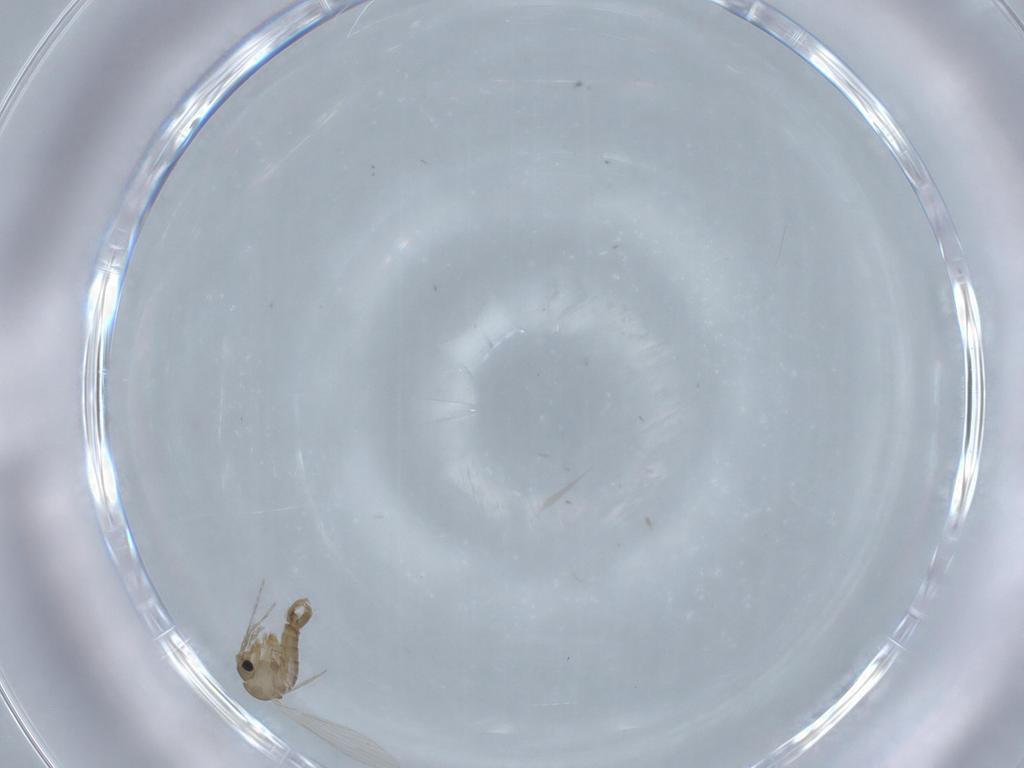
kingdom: Animalia
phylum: Arthropoda
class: Insecta
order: Diptera
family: Psychodidae
